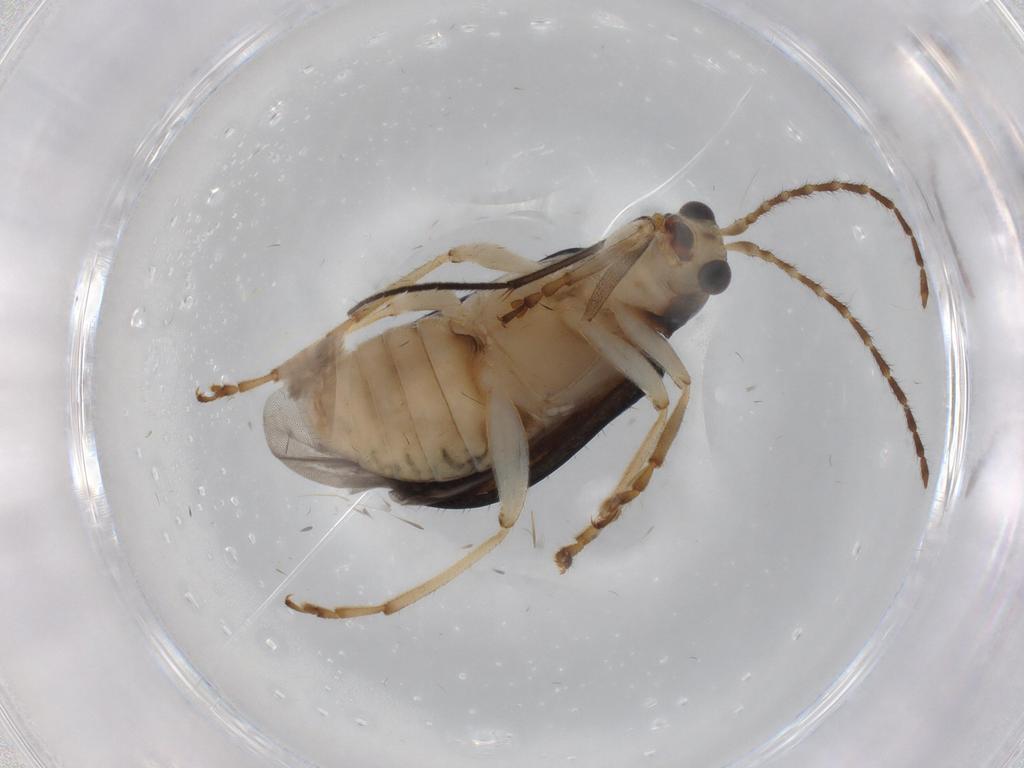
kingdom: Animalia
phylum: Arthropoda
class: Insecta
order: Coleoptera
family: Chrysomelidae
